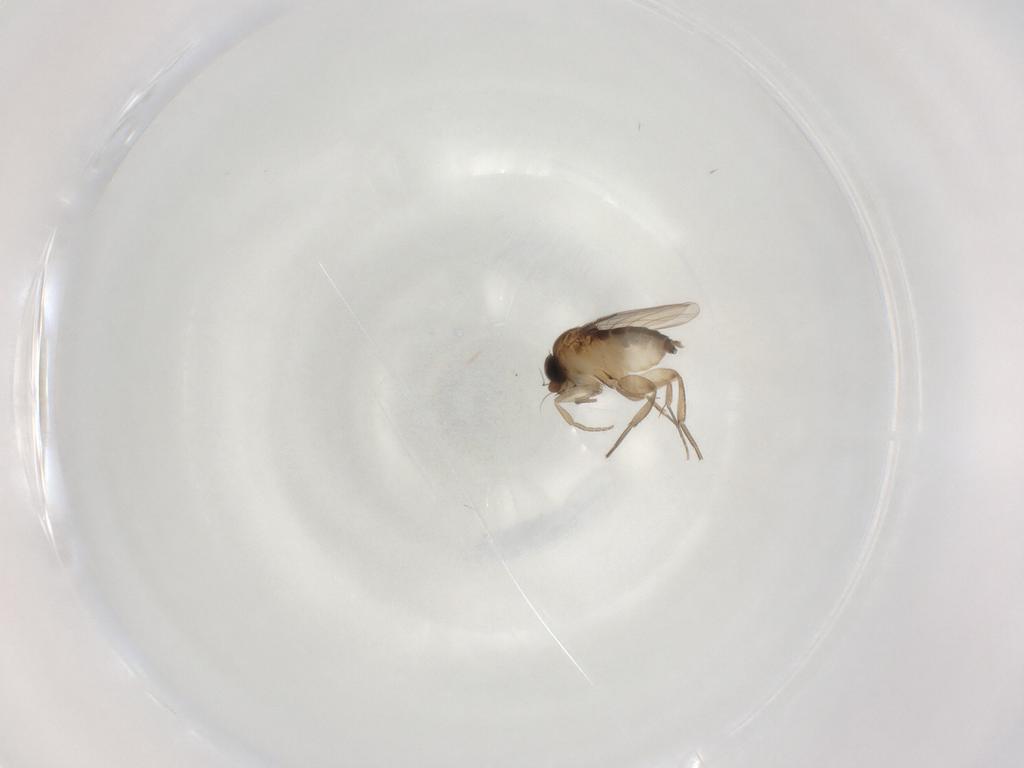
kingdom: Animalia
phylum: Arthropoda
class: Insecta
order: Diptera
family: Phoridae
